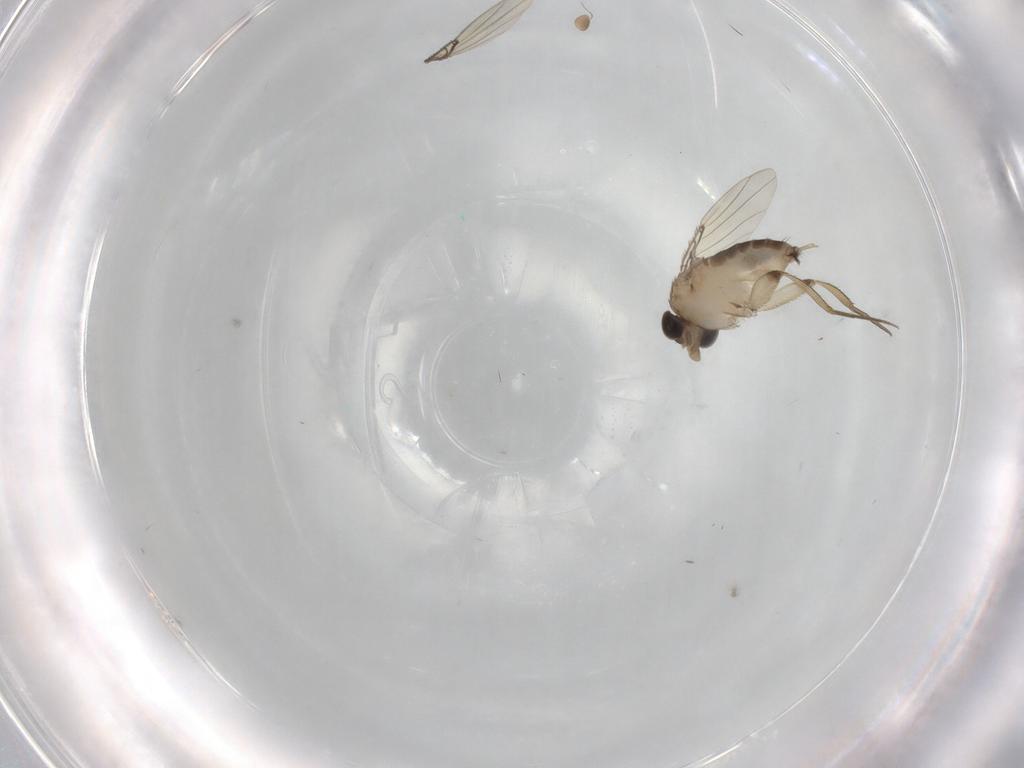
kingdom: Animalia
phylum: Arthropoda
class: Insecta
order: Diptera
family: Phoridae
